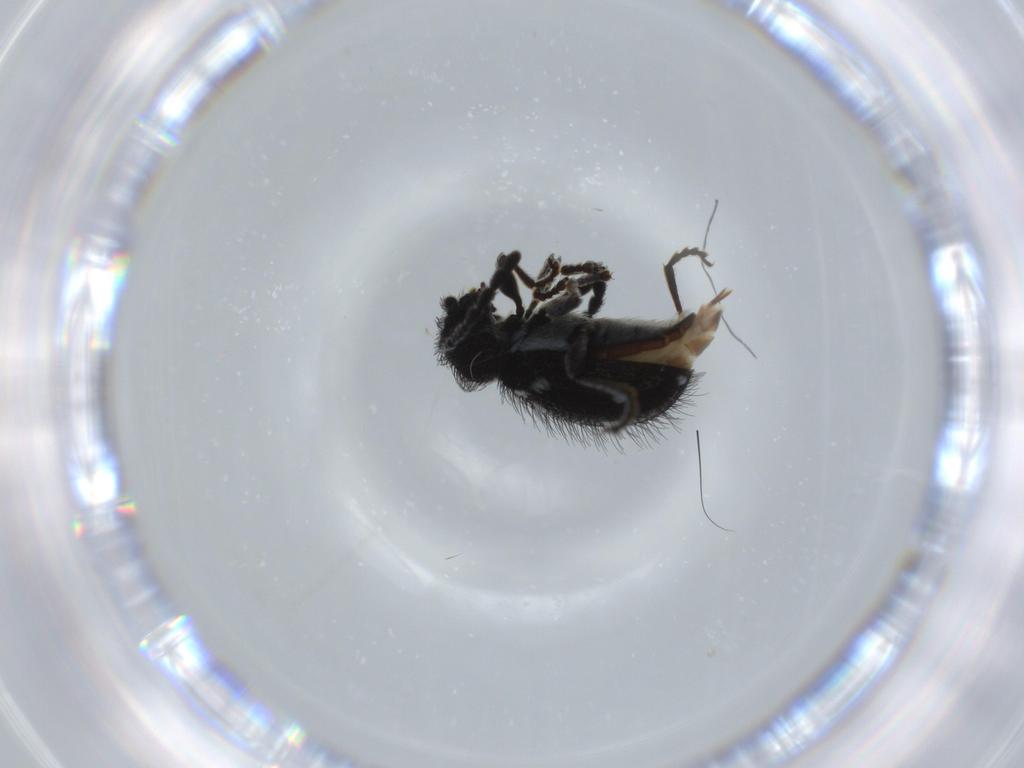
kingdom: Animalia
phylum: Arthropoda
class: Insecta
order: Coleoptera
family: Ptinidae
